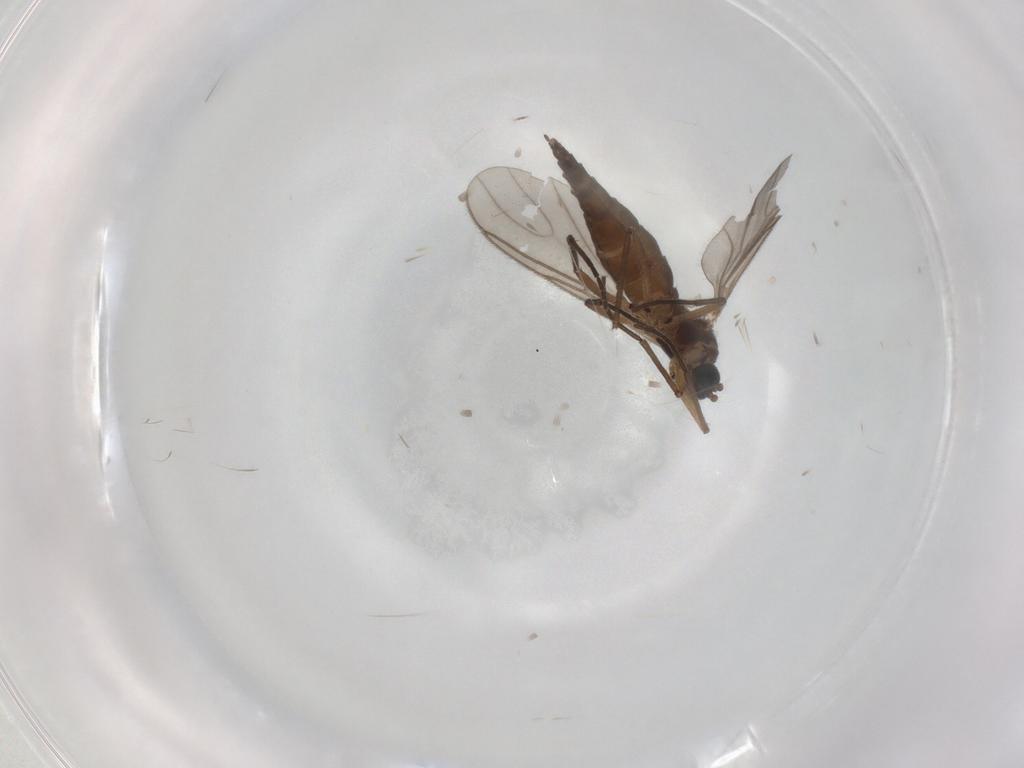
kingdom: Animalia
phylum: Arthropoda
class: Insecta
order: Diptera
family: Sciaridae
